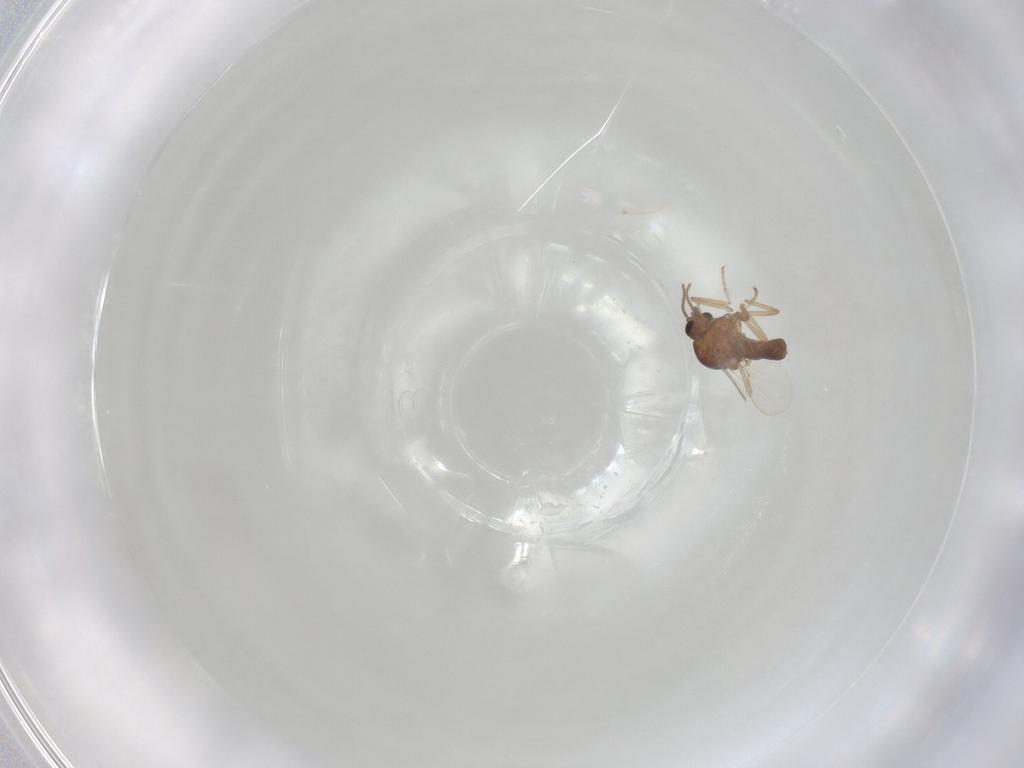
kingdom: Animalia
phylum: Arthropoda
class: Insecta
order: Diptera
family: Ceratopogonidae
